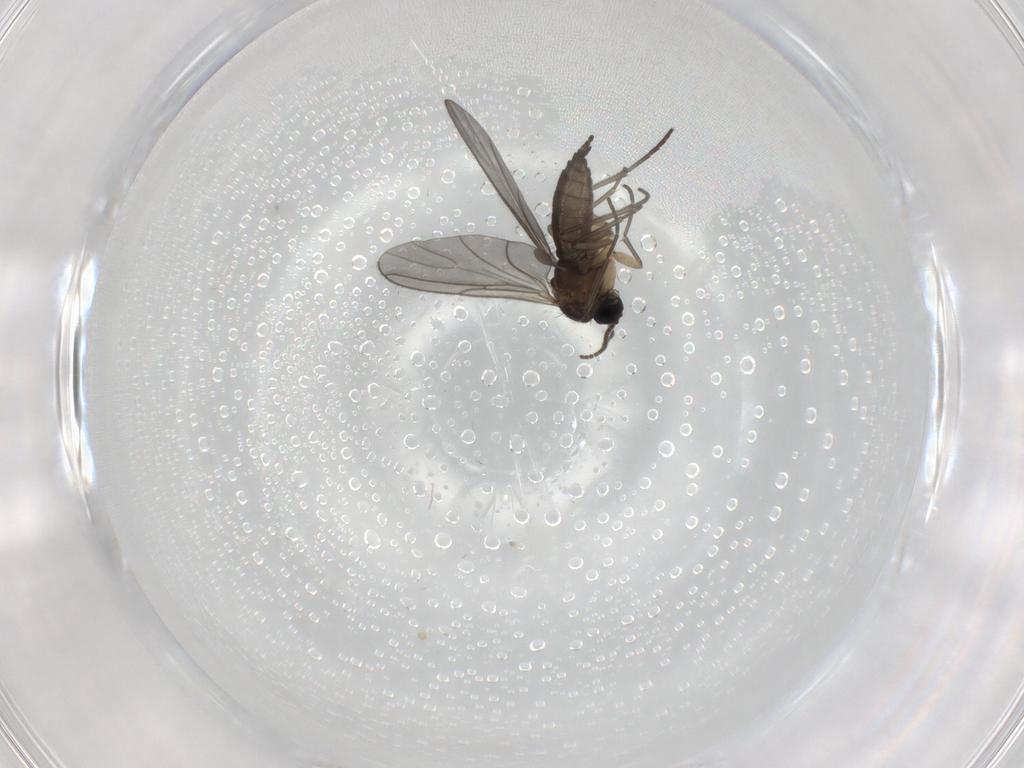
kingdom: Animalia
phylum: Arthropoda
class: Insecta
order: Diptera
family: Sciaridae
